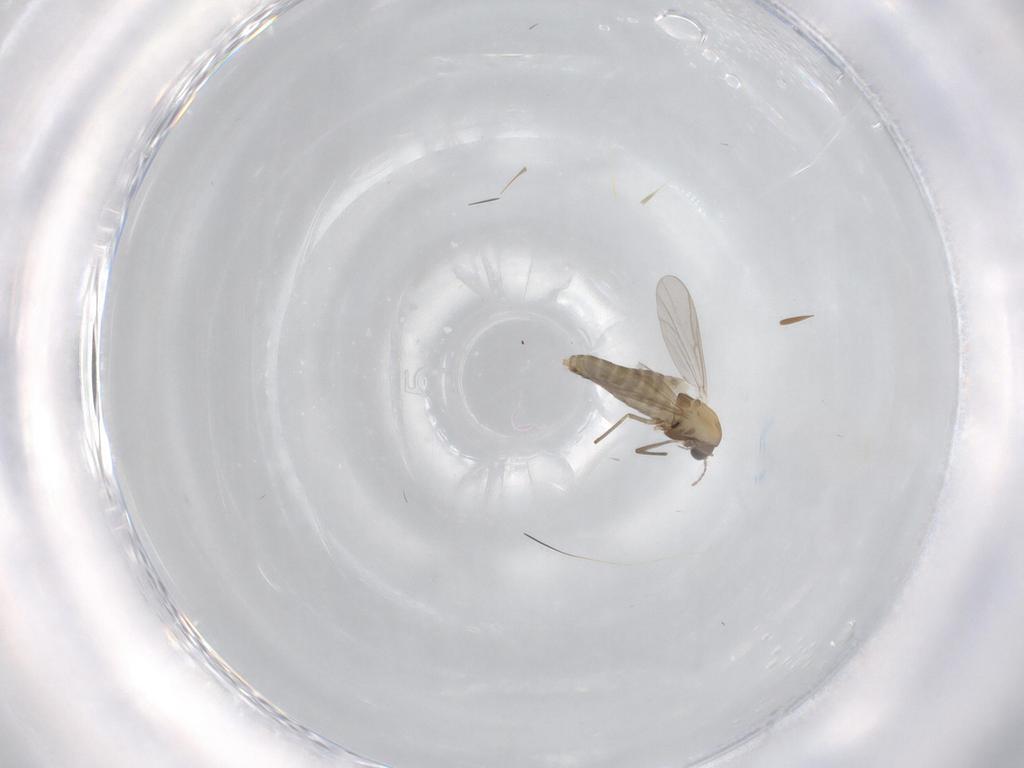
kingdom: Animalia
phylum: Arthropoda
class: Insecta
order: Diptera
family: Chironomidae
